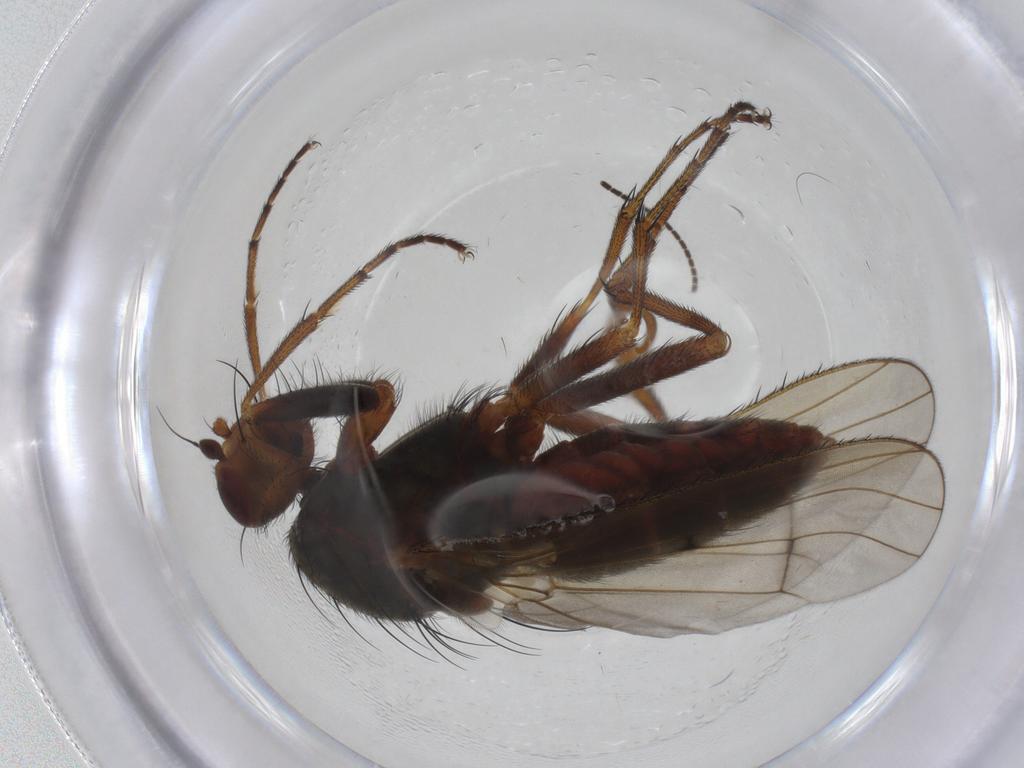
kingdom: Animalia
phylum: Arthropoda
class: Insecta
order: Diptera
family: Heleomyzidae
